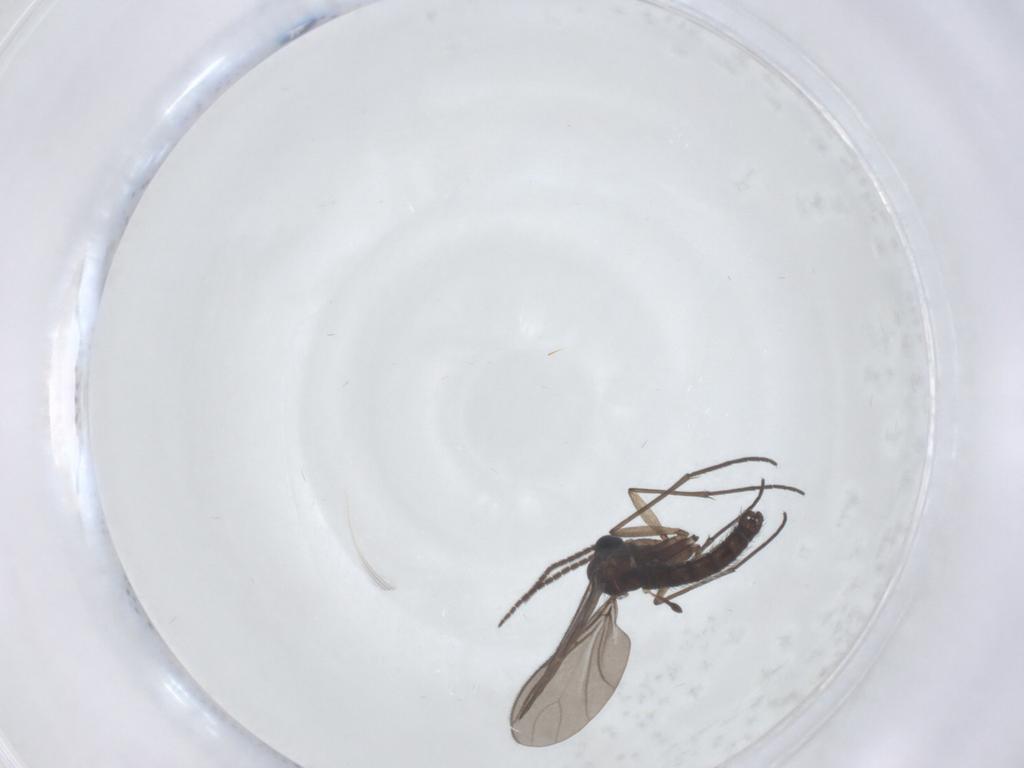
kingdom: Animalia
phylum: Arthropoda
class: Insecta
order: Diptera
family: Sciaridae
